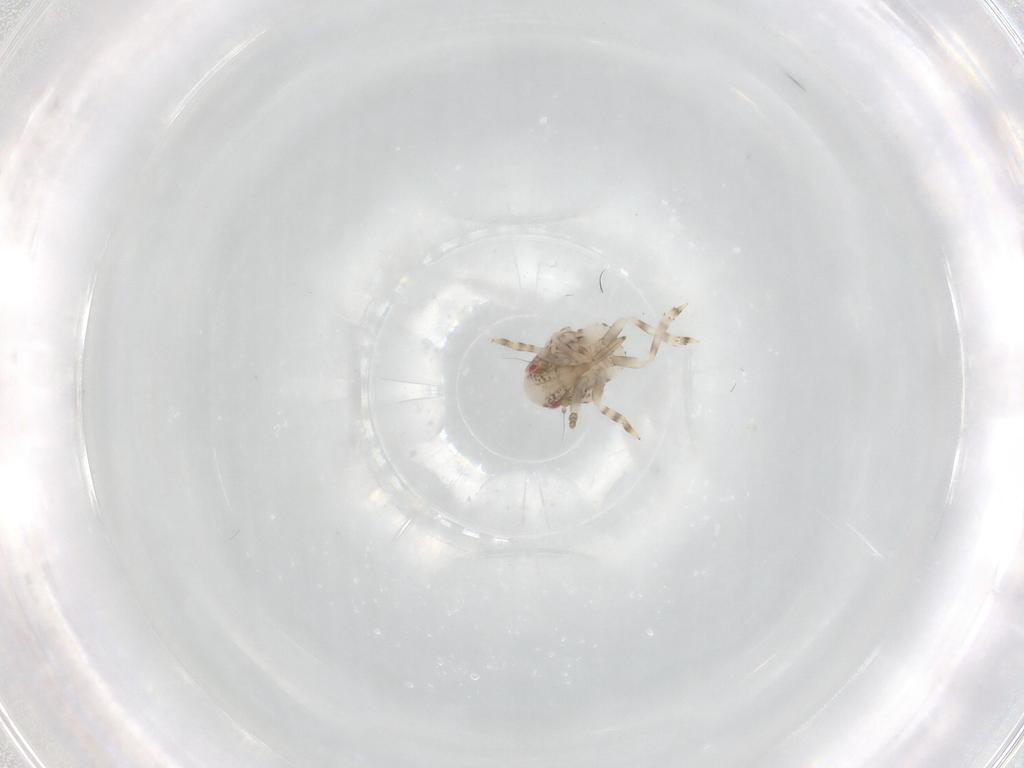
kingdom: Animalia
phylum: Arthropoda
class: Insecta
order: Hemiptera
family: Acanaloniidae
